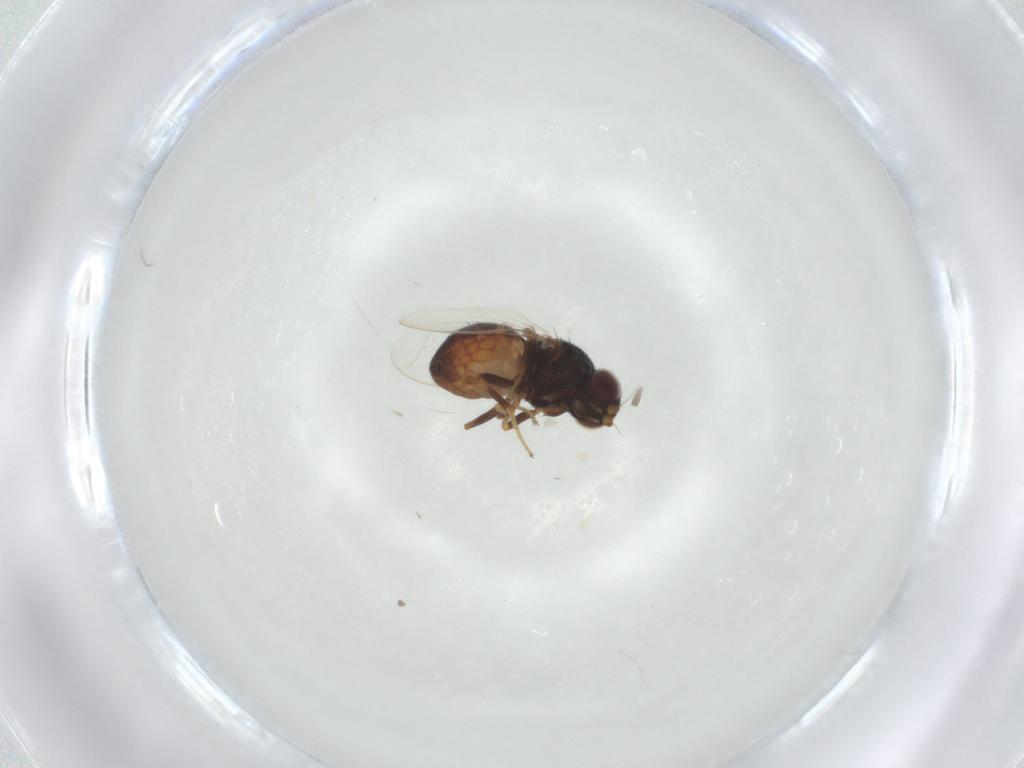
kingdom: Animalia
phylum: Arthropoda
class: Insecta
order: Diptera
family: Chloropidae
